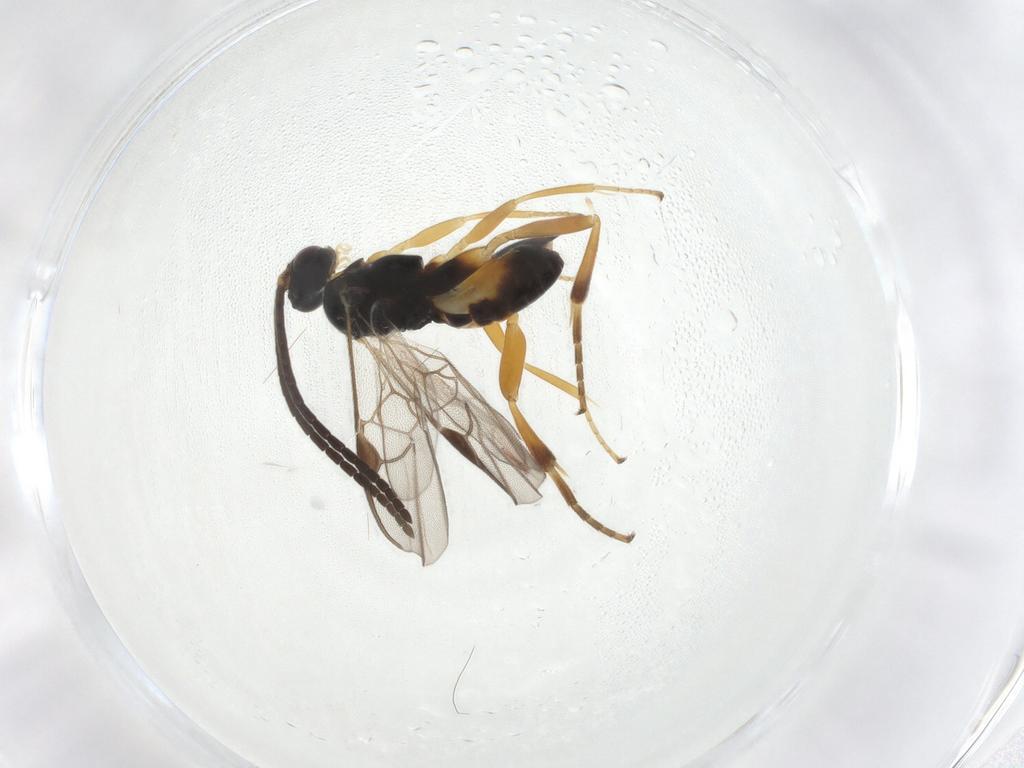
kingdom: Animalia
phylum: Arthropoda
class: Insecta
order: Hymenoptera
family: Braconidae
